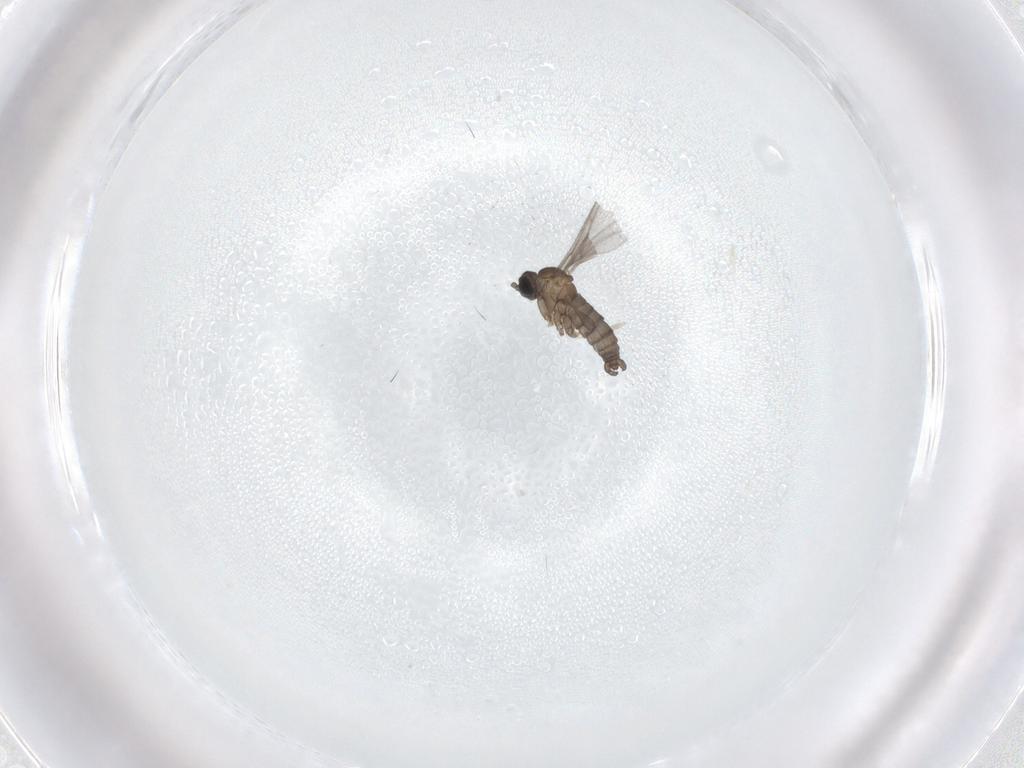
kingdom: Animalia
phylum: Arthropoda
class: Insecta
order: Diptera
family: Sciaridae
